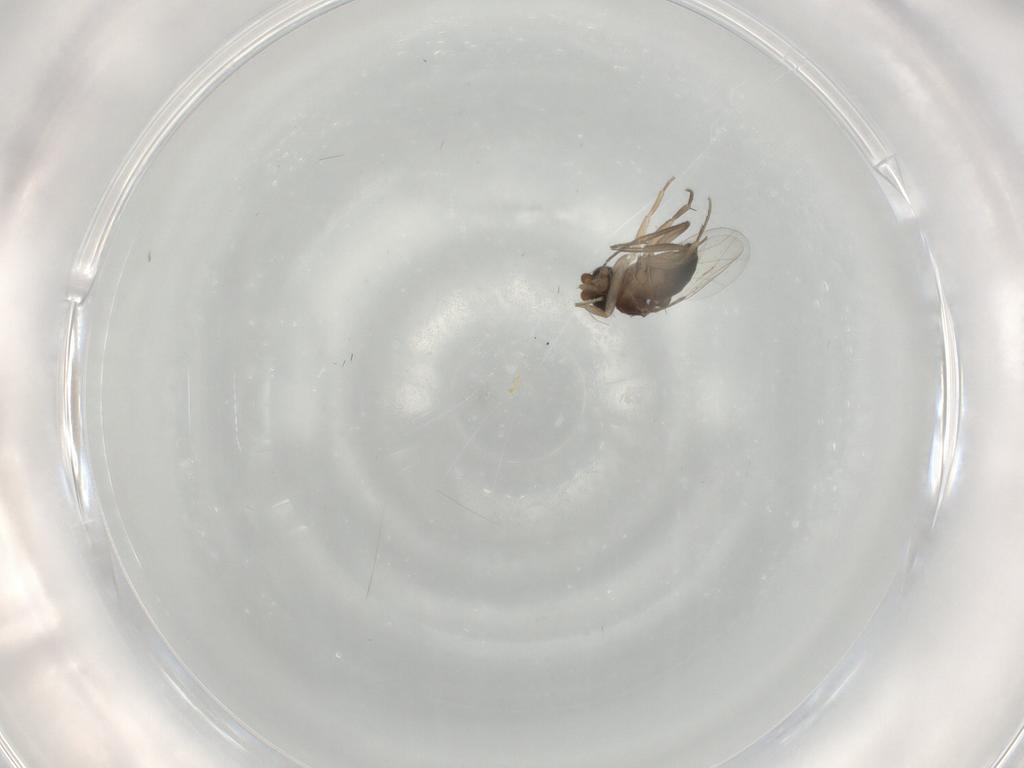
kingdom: Animalia
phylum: Arthropoda
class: Insecta
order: Diptera
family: Phoridae
